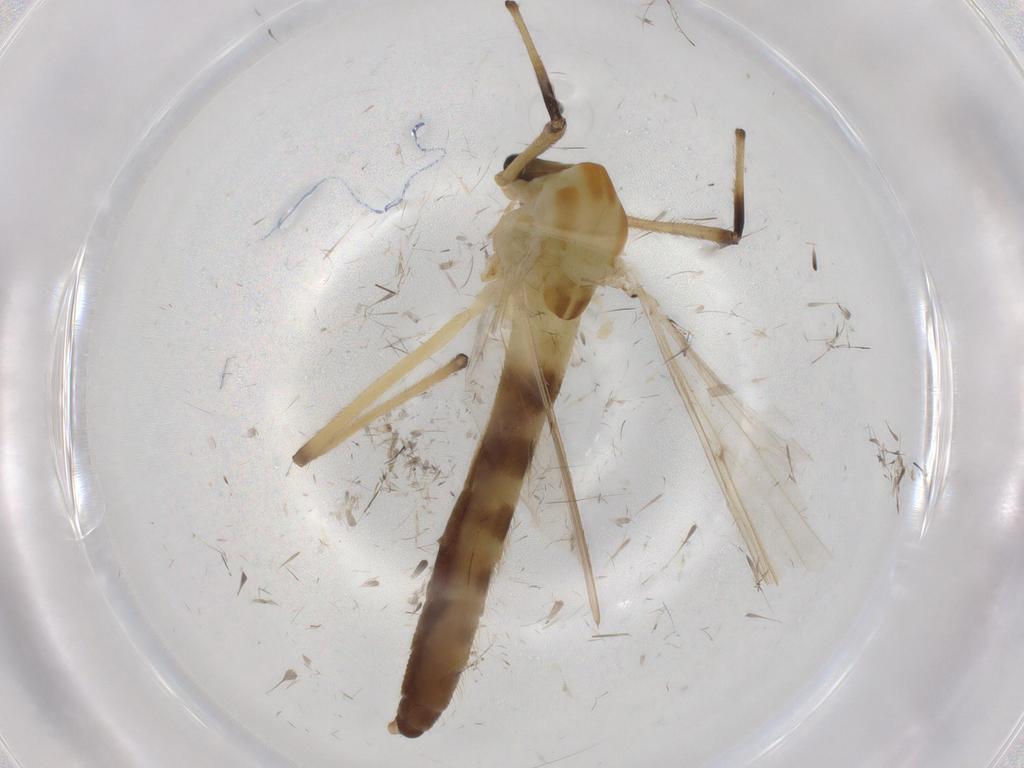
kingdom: Animalia
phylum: Arthropoda
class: Insecta
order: Diptera
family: Chironomidae
